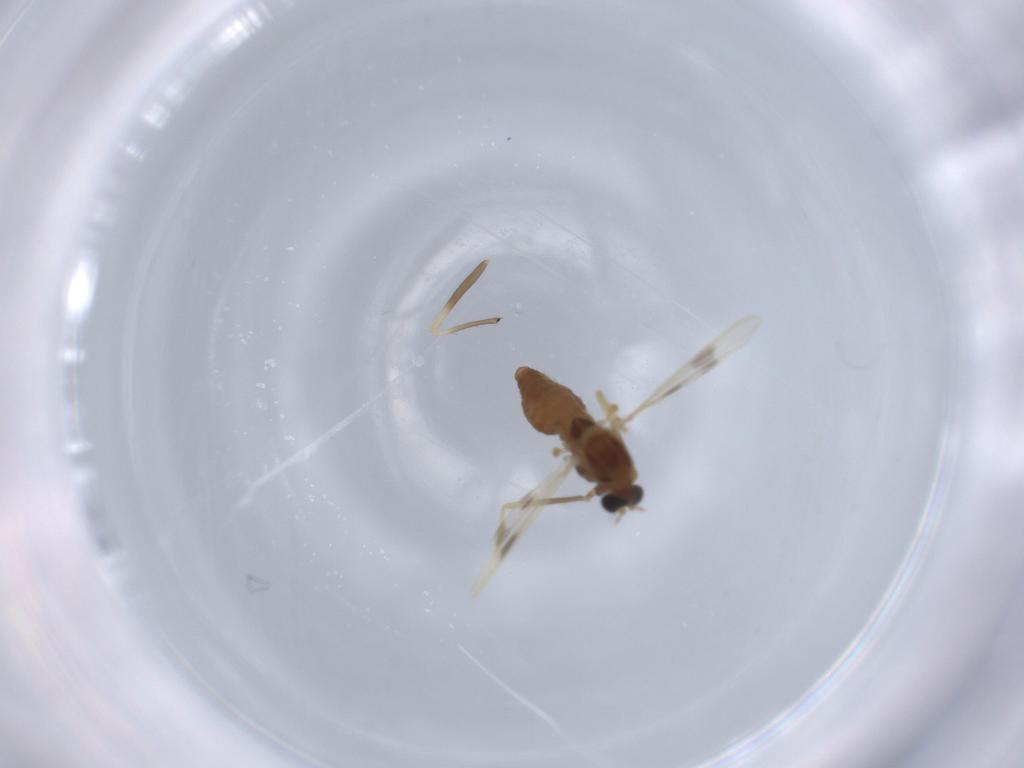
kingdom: Animalia
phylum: Arthropoda
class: Insecta
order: Diptera
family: Chironomidae
